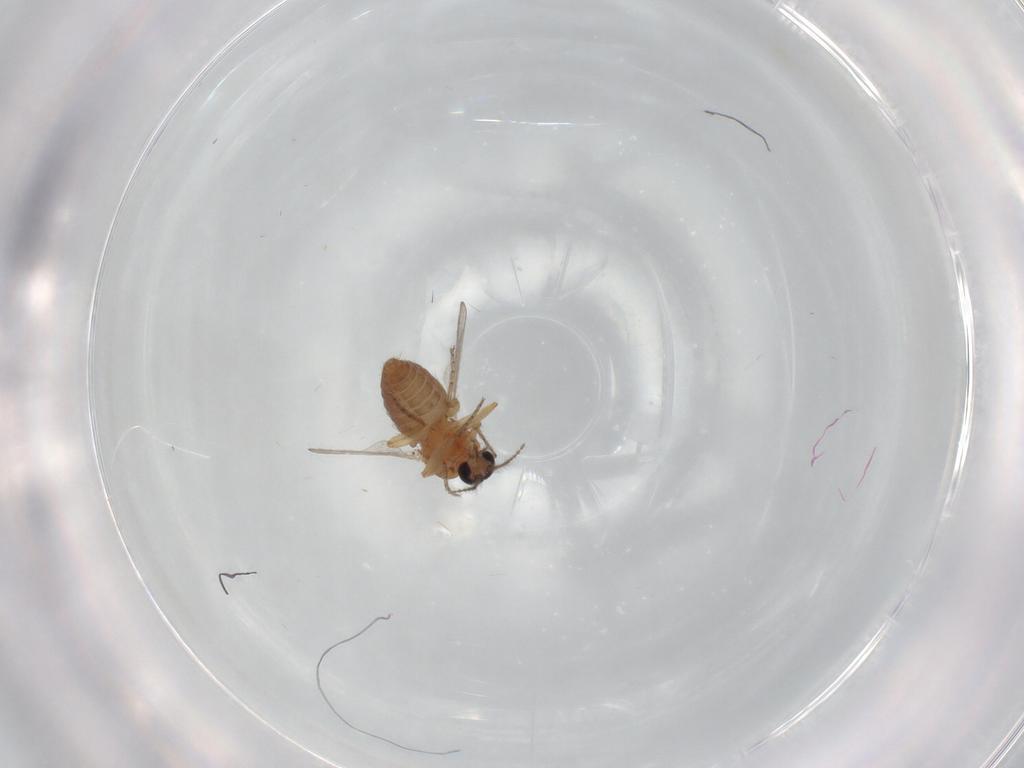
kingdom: Animalia
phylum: Arthropoda
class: Insecta
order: Diptera
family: Ceratopogonidae
